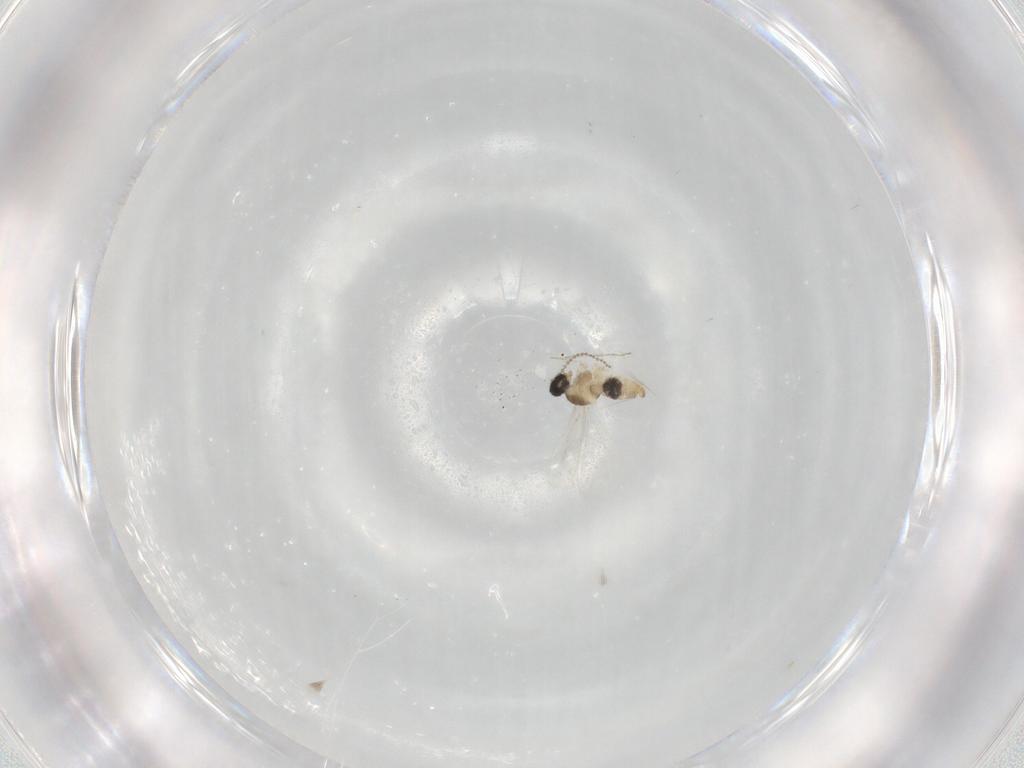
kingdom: Animalia
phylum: Arthropoda
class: Insecta
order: Diptera
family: Cecidomyiidae
